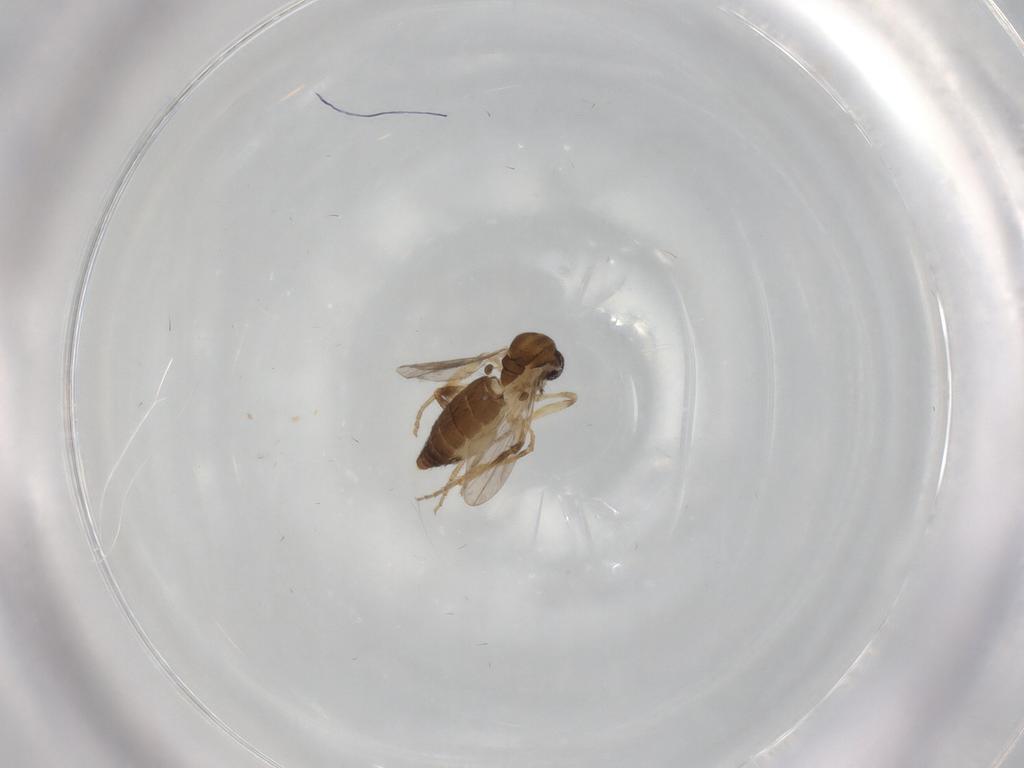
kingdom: Animalia
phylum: Arthropoda
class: Insecta
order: Diptera
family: Ceratopogonidae
